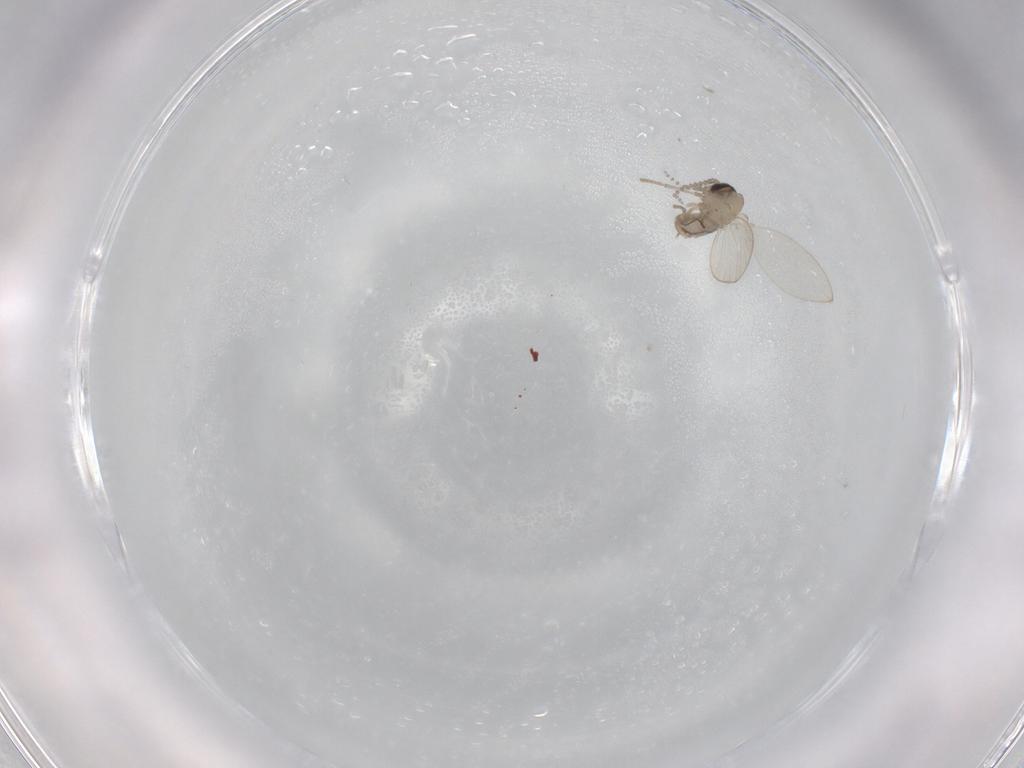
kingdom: Animalia
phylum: Arthropoda
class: Insecta
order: Diptera
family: Psychodidae
